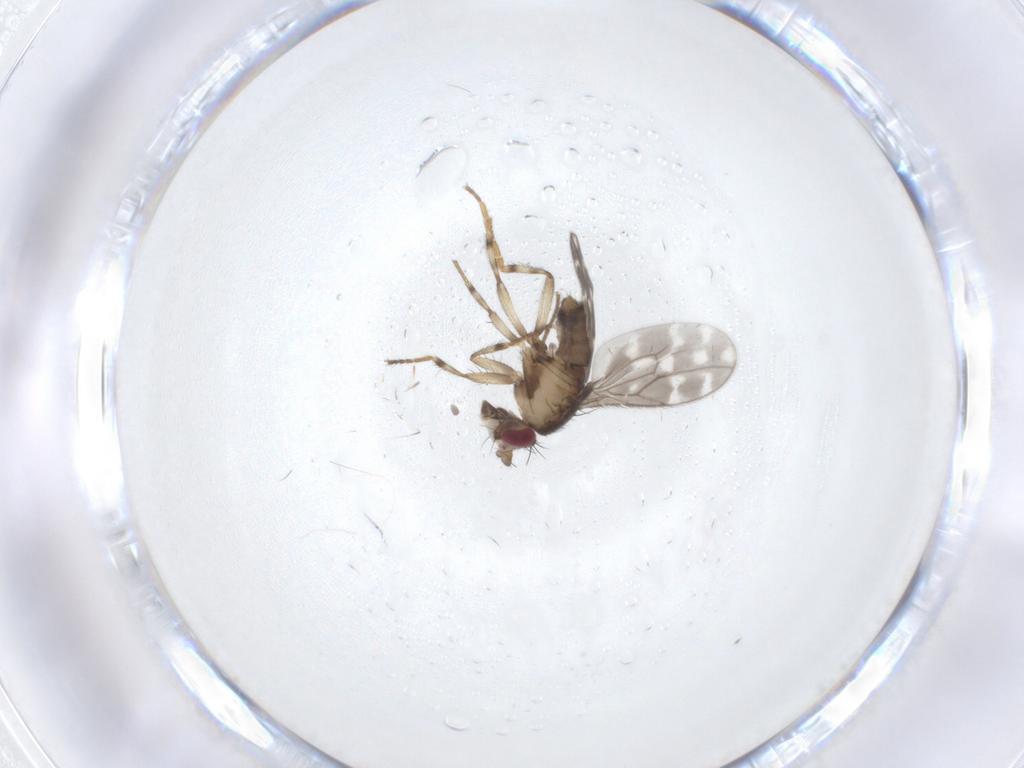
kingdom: Animalia
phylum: Arthropoda
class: Insecta
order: Diptera
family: Sphaeroceridae
